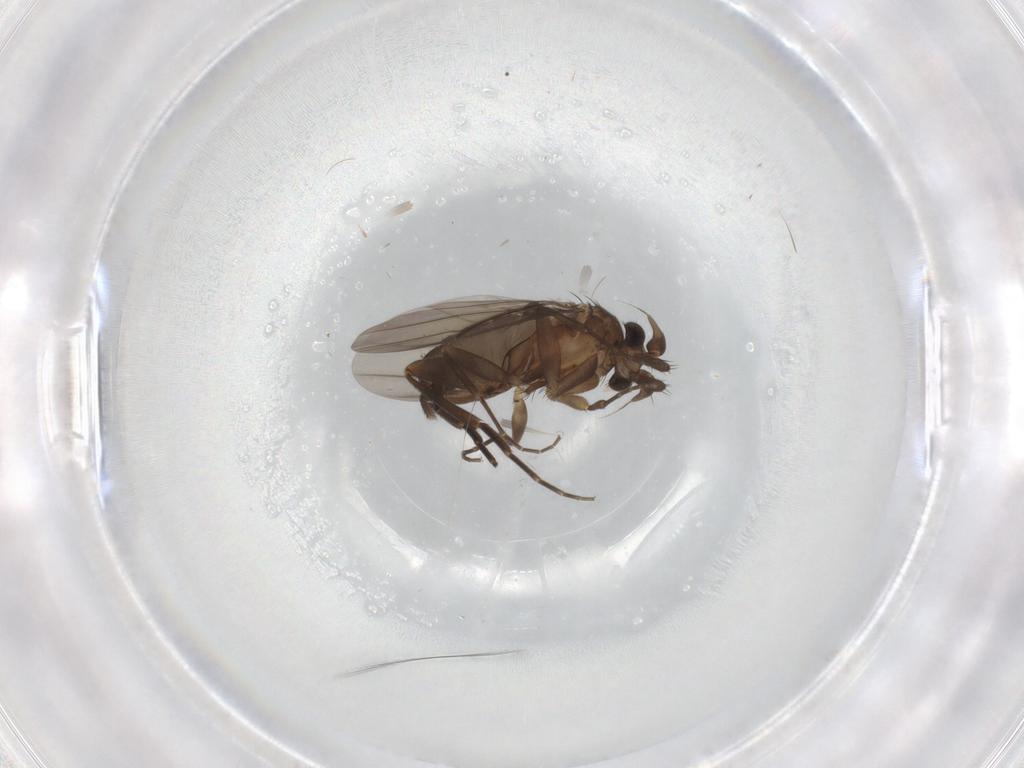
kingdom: Animalia
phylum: Arthropoda
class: Insecta
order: Diptera
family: Phoridae
